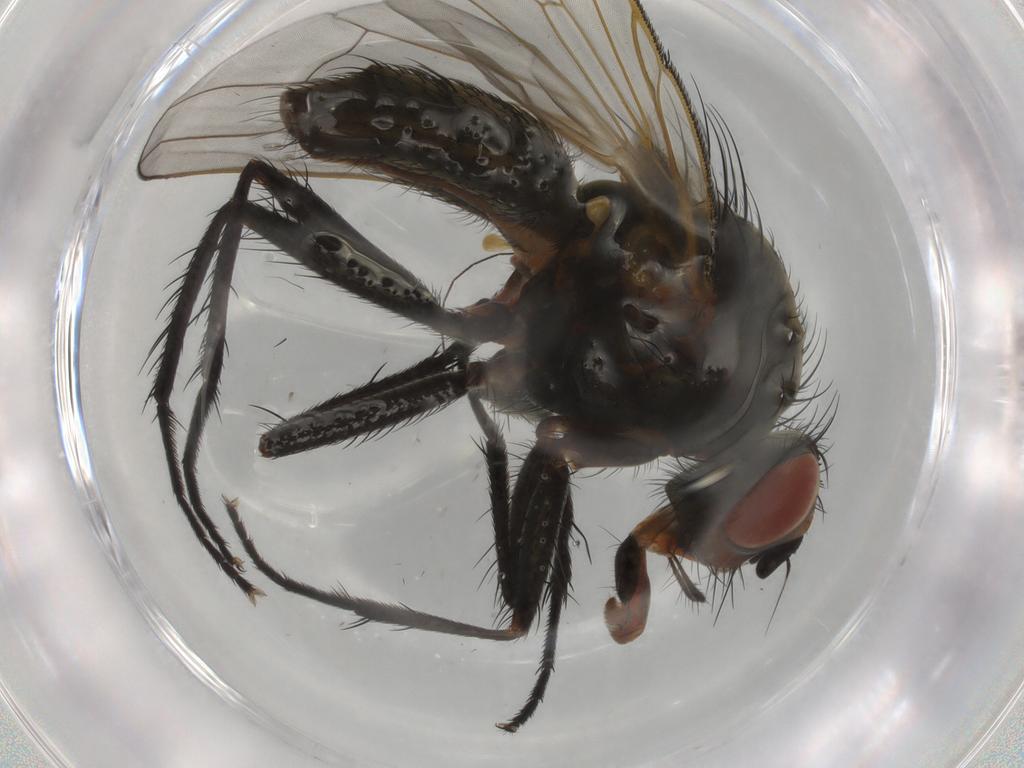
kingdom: Animalia
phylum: Arthropoda
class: Insecta
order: Diptera
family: Anthomyiidae
